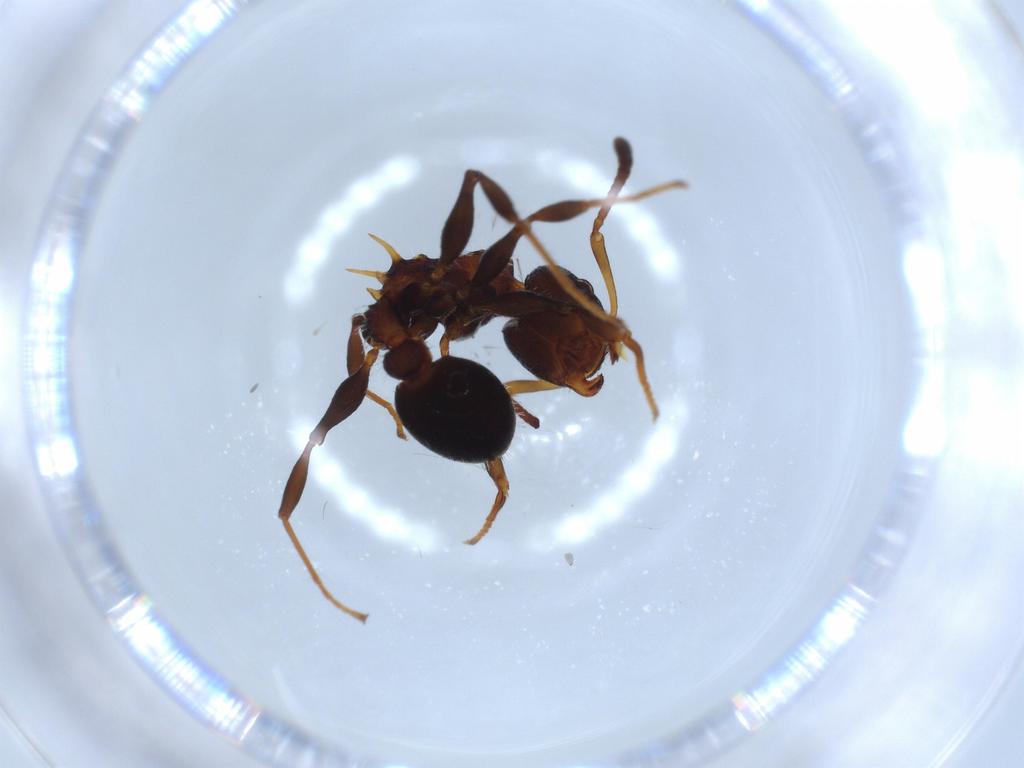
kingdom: Animalia
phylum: Arthropoda
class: Insecta
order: Hymenoptera
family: Formicidae
